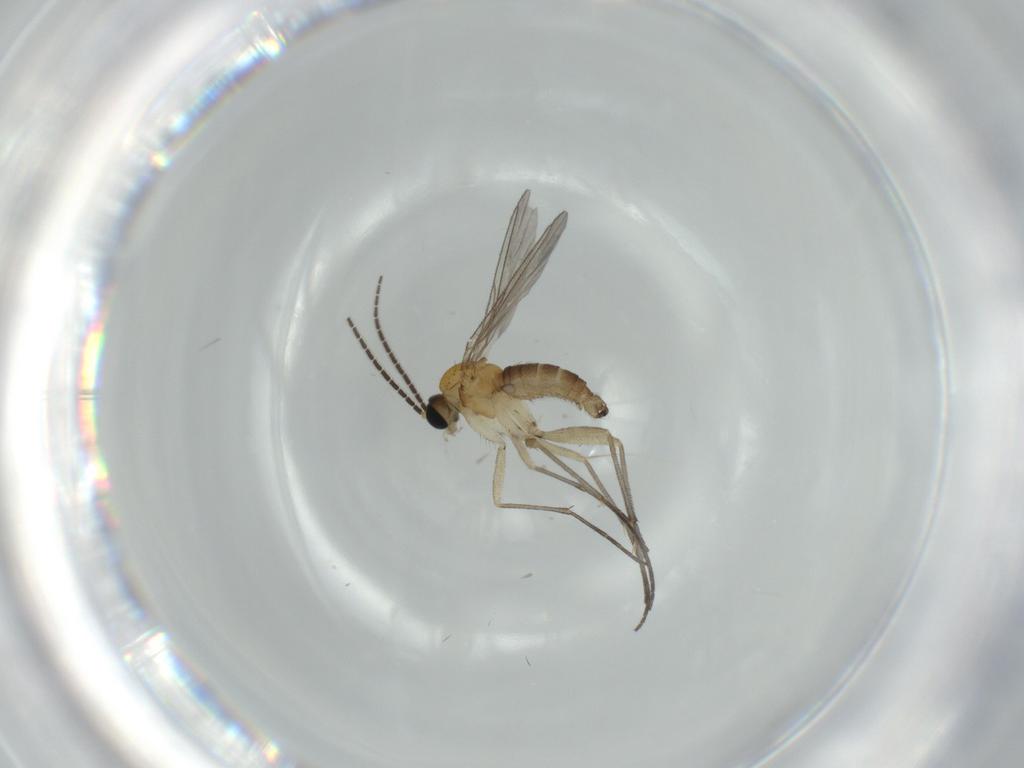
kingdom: Animalia
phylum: Arthropoda
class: Insecta
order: Diptera
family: Sciaridae
